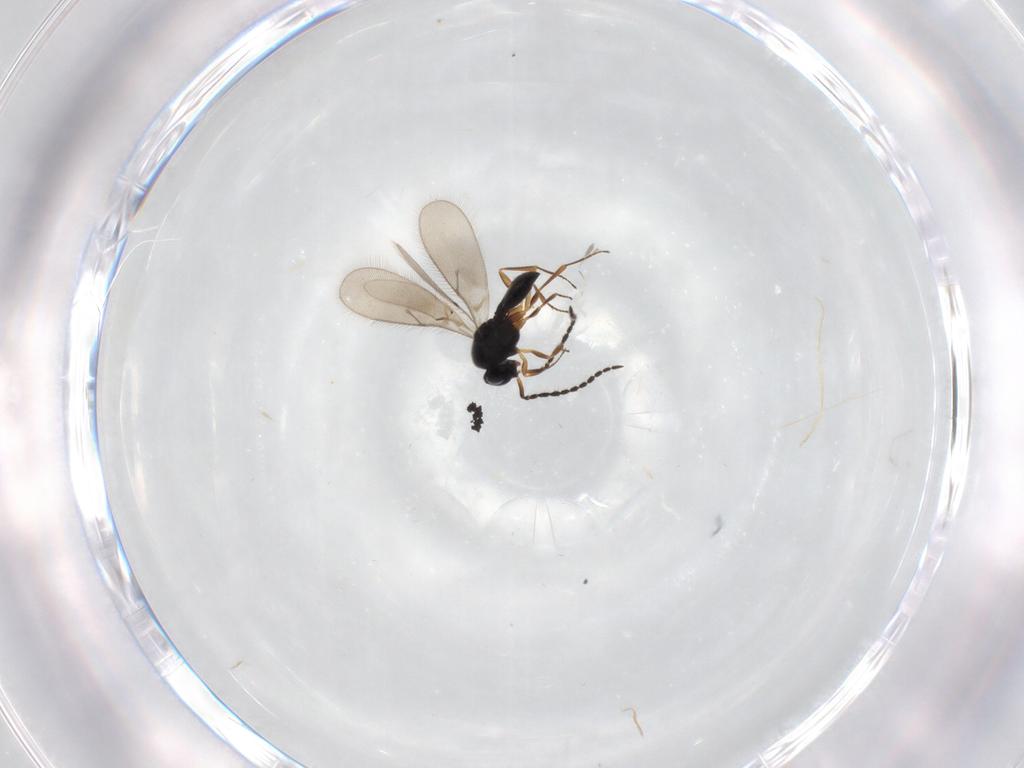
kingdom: Animalia
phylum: Arthropoda
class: Insecta
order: Hymenoptera
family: Scelionidae
